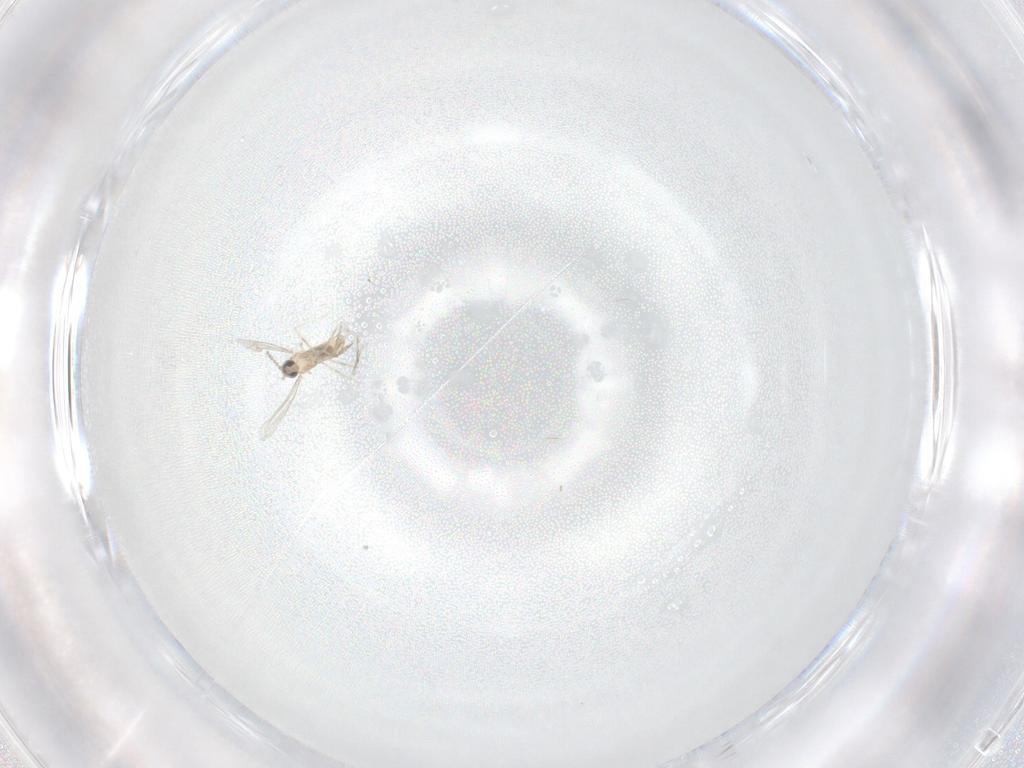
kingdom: Animalia
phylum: Arthropoda
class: Insecta
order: Diptera
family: Cecidomyiidae
